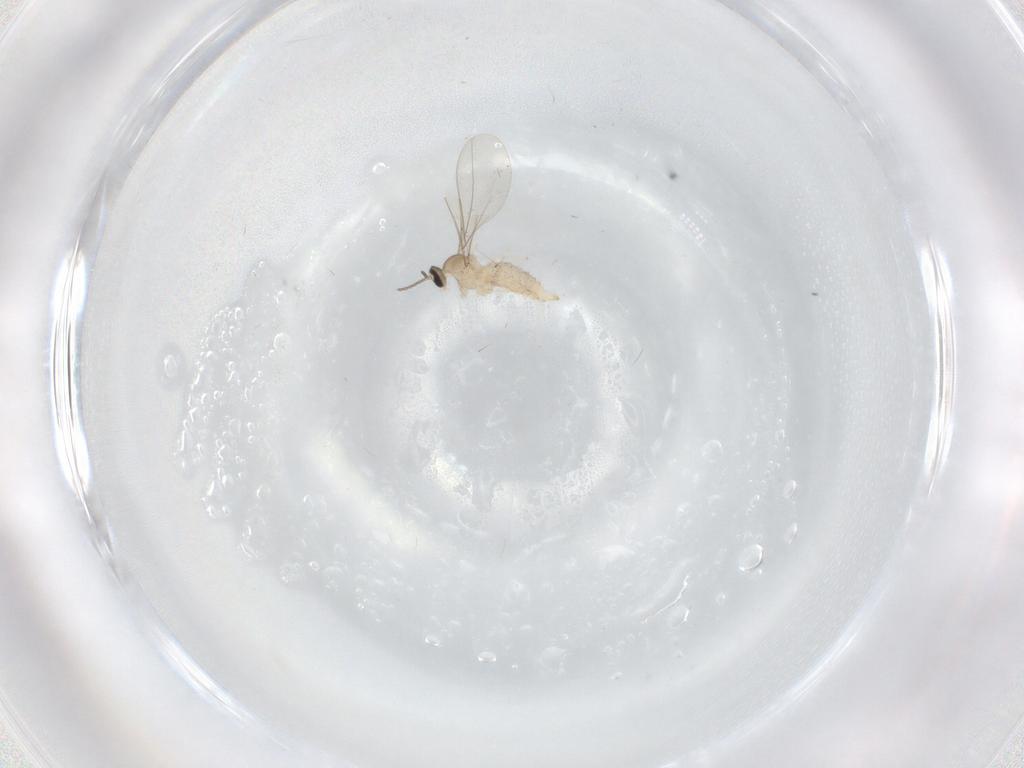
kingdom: Animalia
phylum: Arthropoda
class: Insecta
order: Diptera
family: Cecidomyiidae
